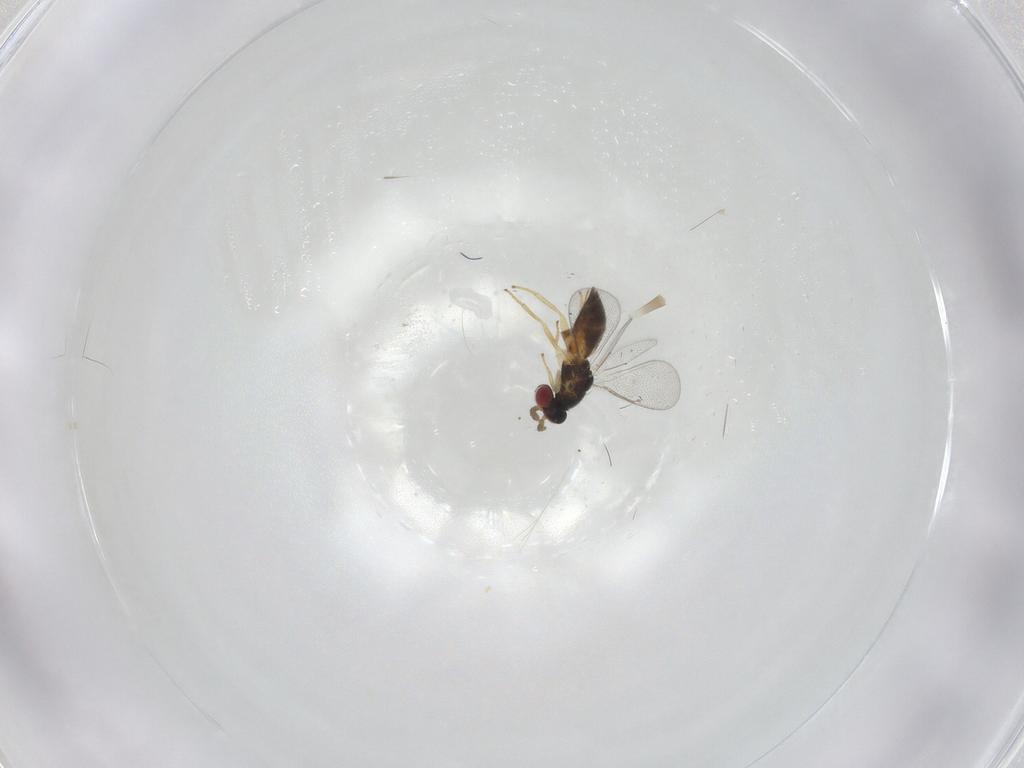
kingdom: Animalia
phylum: Arthropoda
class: Insecta
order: Hymenoptera
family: Eulophidae
